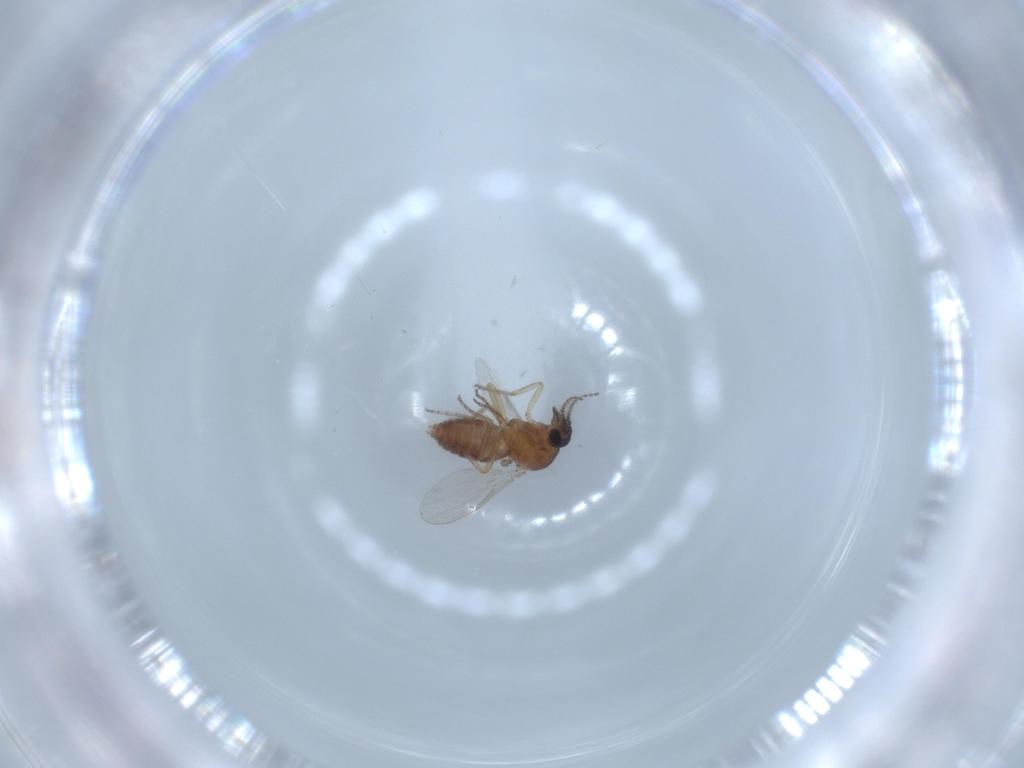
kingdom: Animalia
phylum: Arthropoda
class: Insecta
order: Diptera
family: Ceratopogonidae
